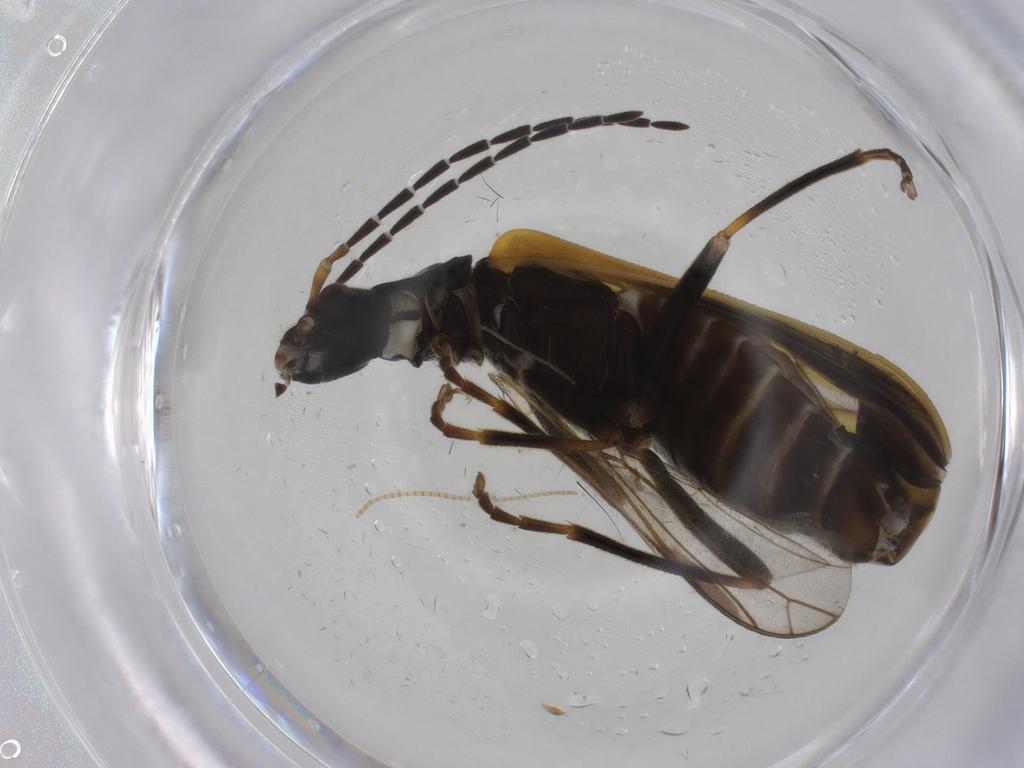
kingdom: Animalia
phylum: Arthropoda
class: Insecta
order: Coleoptera
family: Cantharidae
